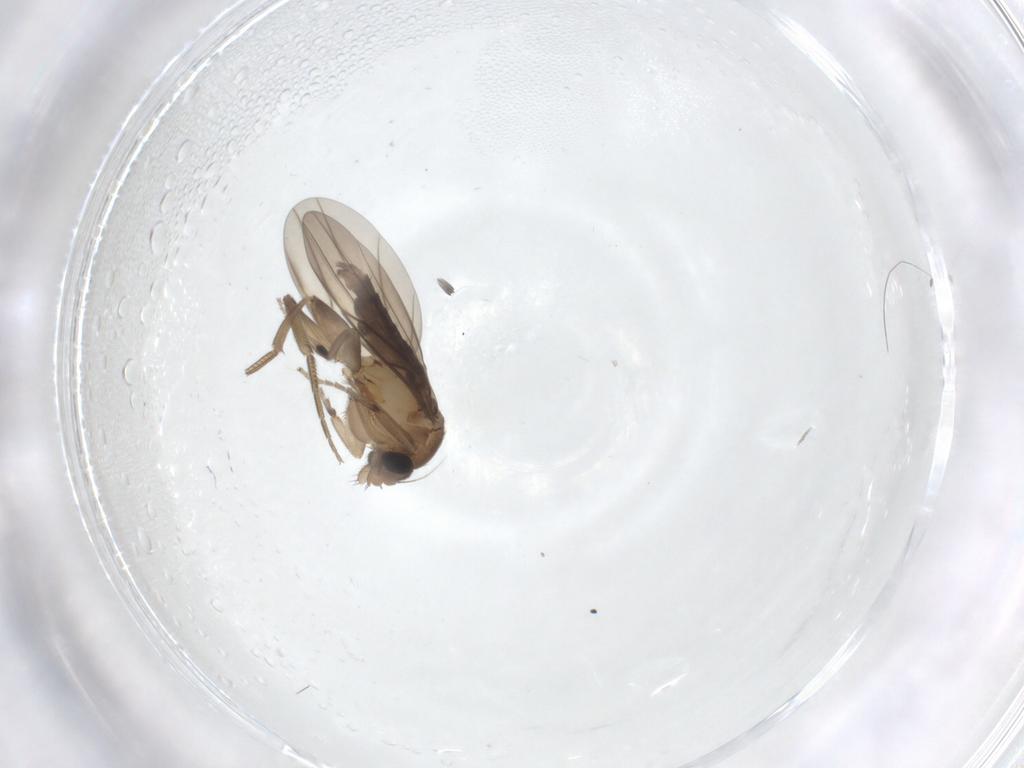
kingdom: Animalia
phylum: Arthropoda
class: Insecta
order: Diptera
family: Phoridae
